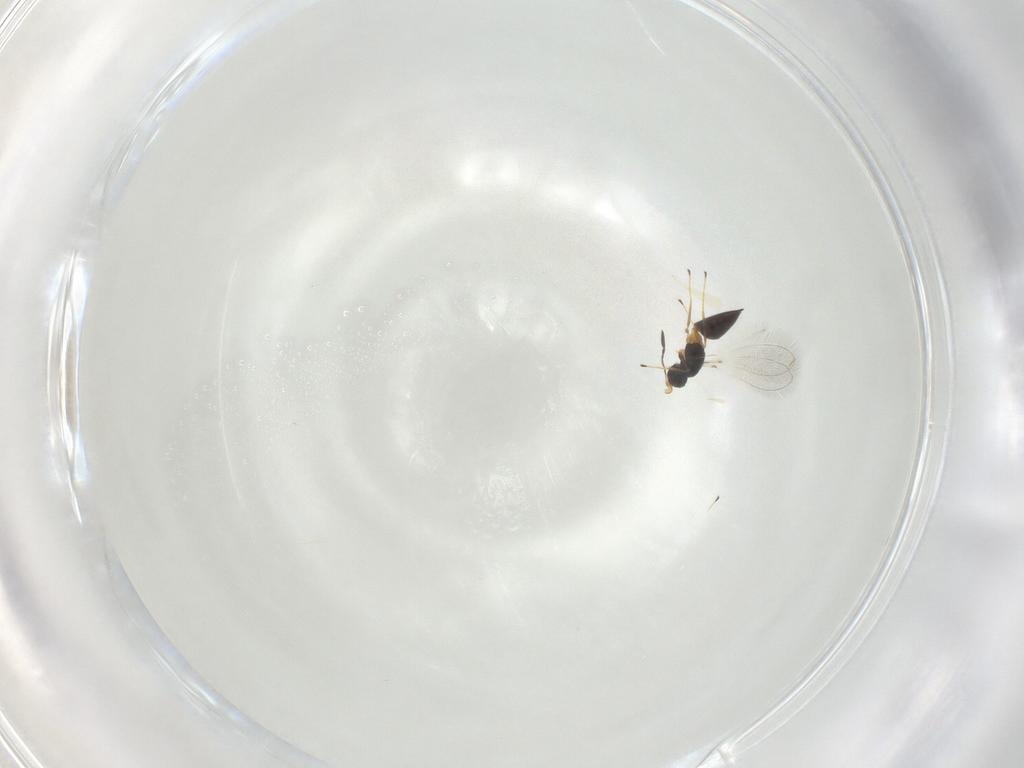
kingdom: Animalia
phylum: Arthropoda
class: Insecta
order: Hymenoptera
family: Mymaridae
